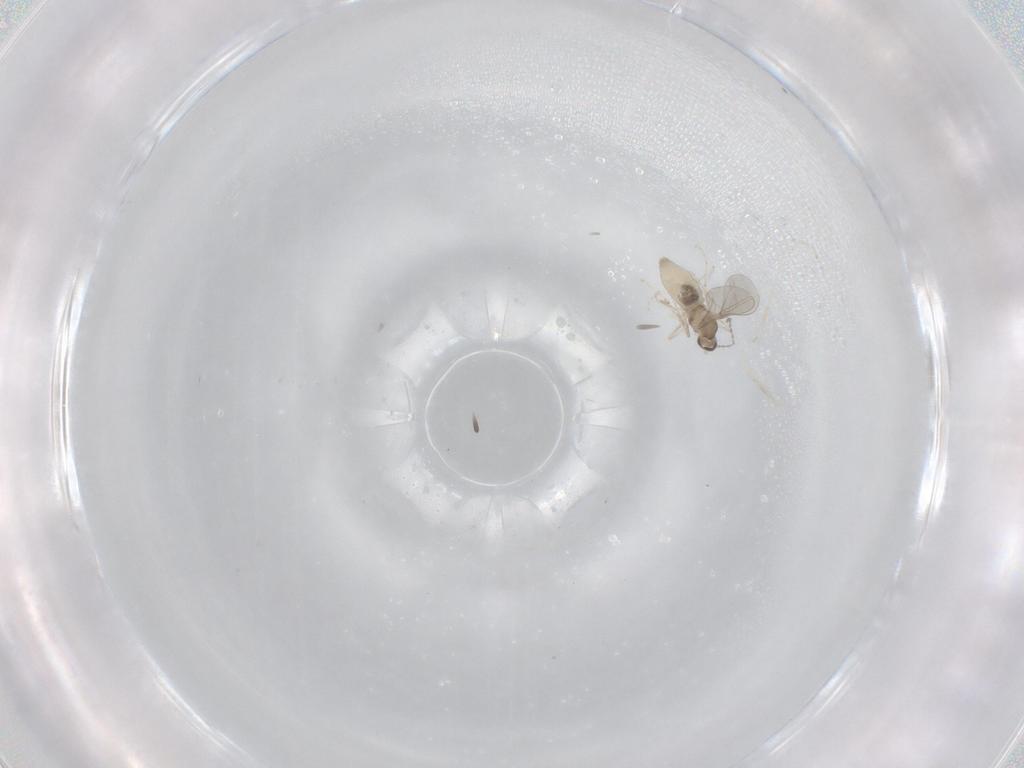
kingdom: Animalia
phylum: Arthropoda
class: Insecta
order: Diptera
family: Cecidomyiidae
